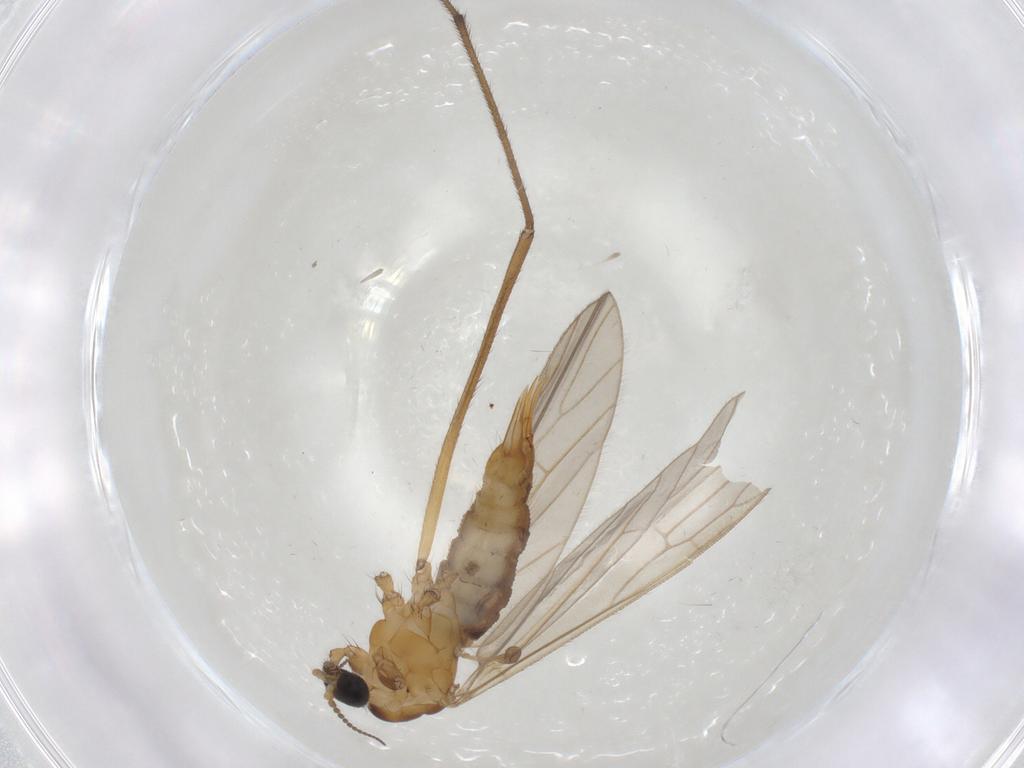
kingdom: Animalia
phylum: Arthropoda
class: Insecta
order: Diptera
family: Limoniidae
